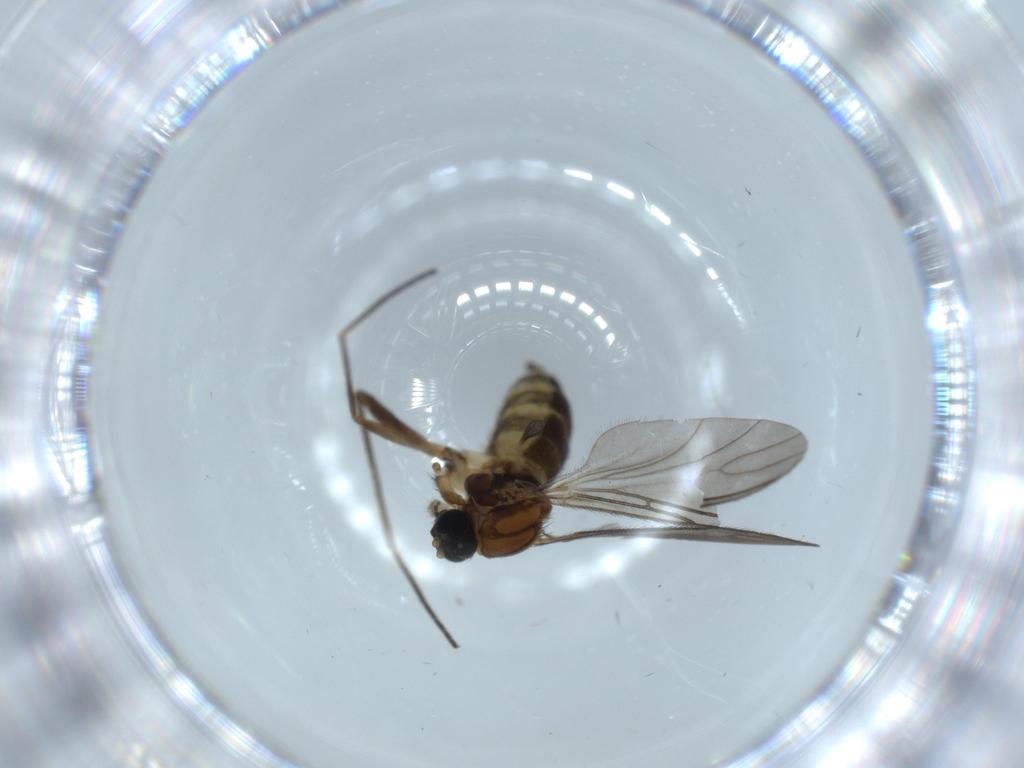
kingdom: Animalia
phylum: Arthropoda
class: Insecta
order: Diptera
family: Sciaridae
